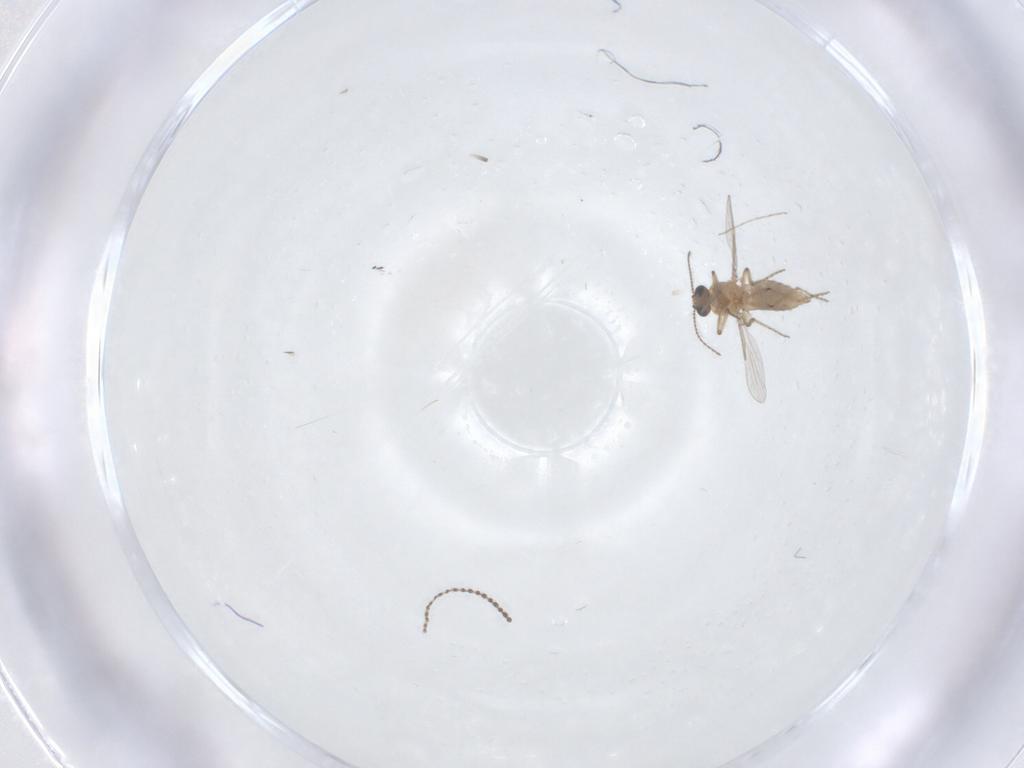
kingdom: Animalia
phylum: Arthropoda
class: Insecta
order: Diptera
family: Ceratopogonidae
